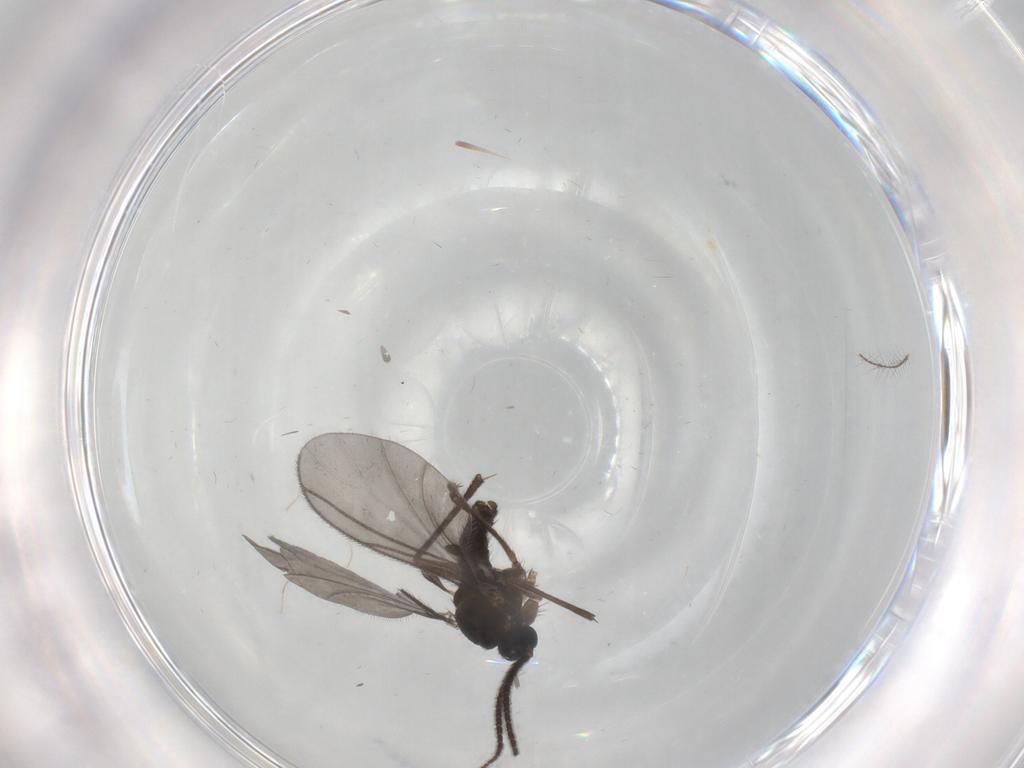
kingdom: Animalia
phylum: Arthropoda
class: Insecta
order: Diptera
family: Sciaridae
